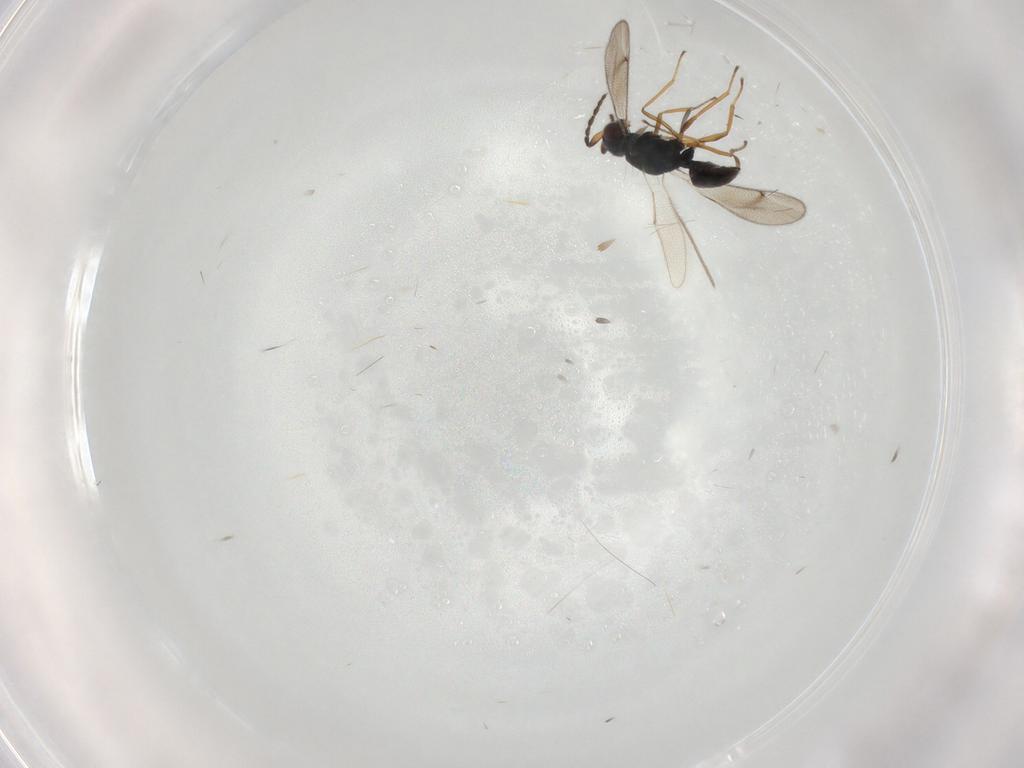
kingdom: Animalia
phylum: Arthropoda
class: Insecta
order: Hymenoptera
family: Eulophidae
